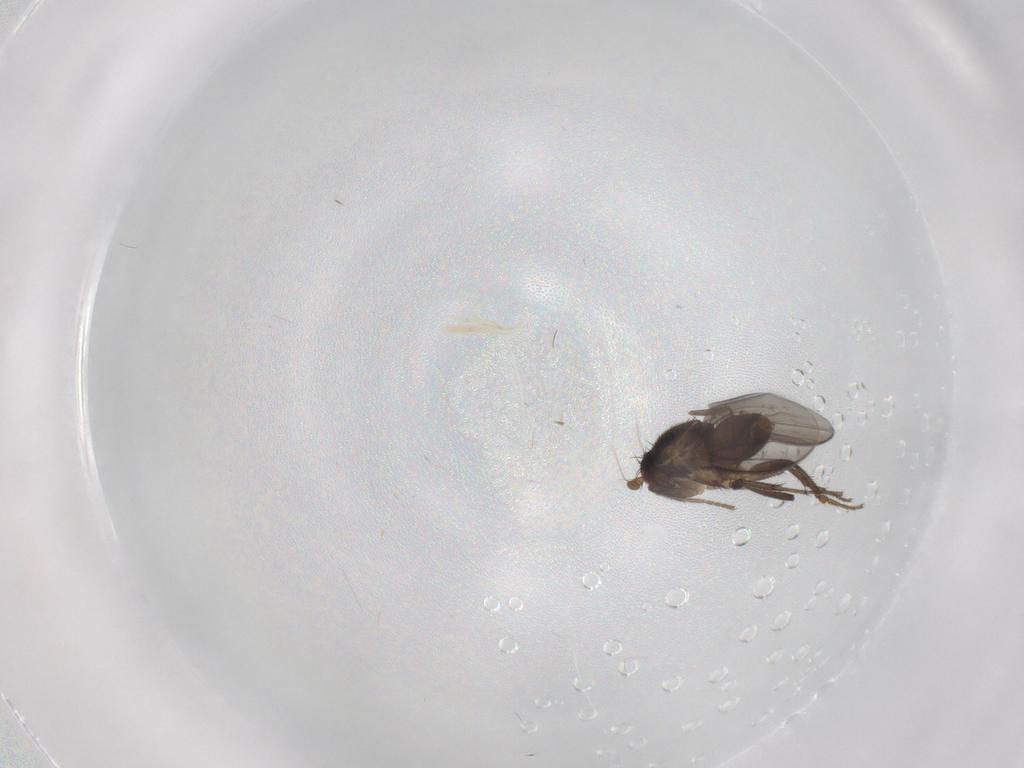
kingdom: Animalia
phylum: Arthropoda
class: Insecta
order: Diptera
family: Sphaeroceridae
